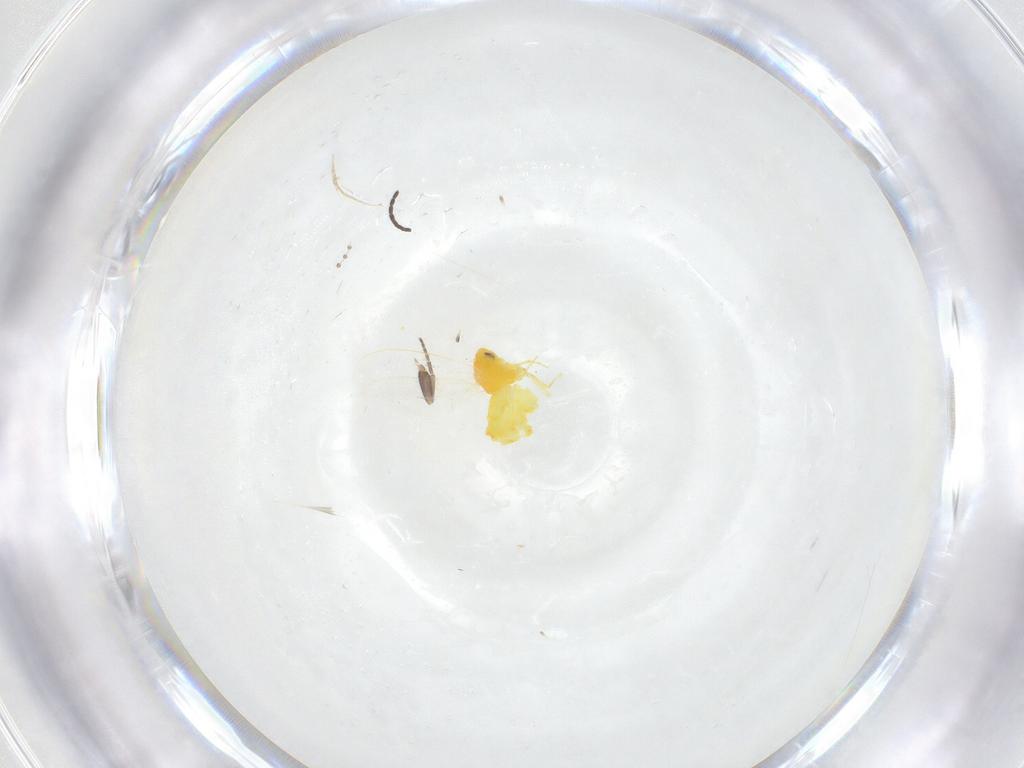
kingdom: Animalia
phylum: Arthropoda
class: Insecta
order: Hemiptera
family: Aleyrodidae
